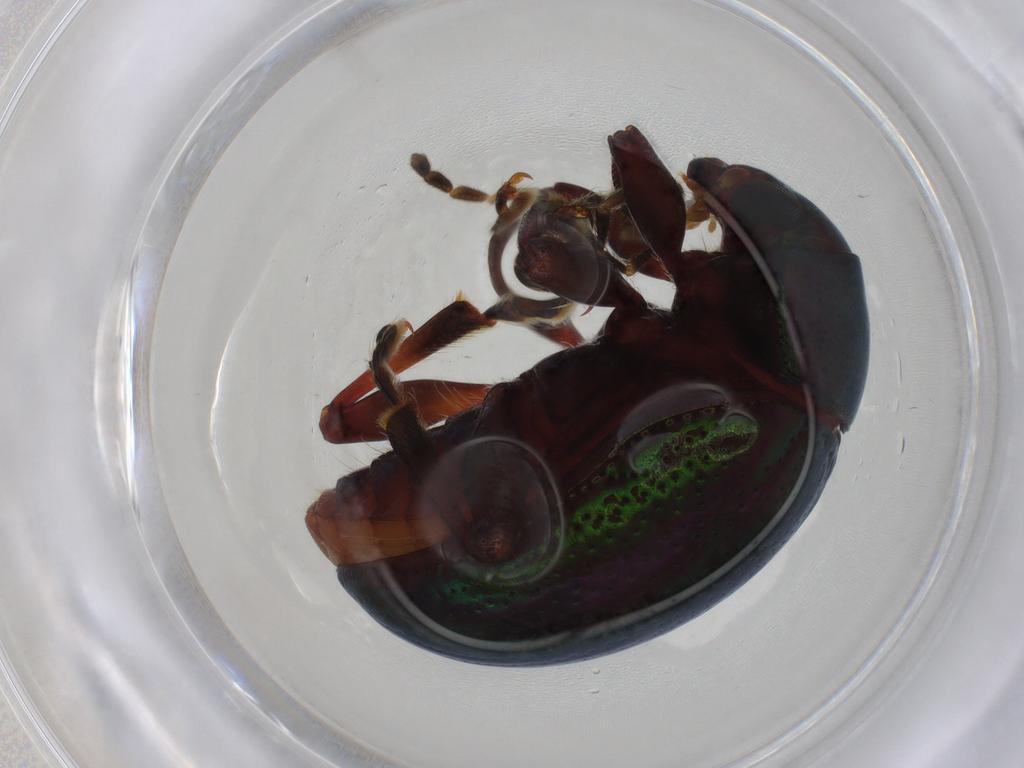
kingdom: Animalia
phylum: Arthropoda
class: Insecta
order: Coleoptera
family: Chrysomelidae
